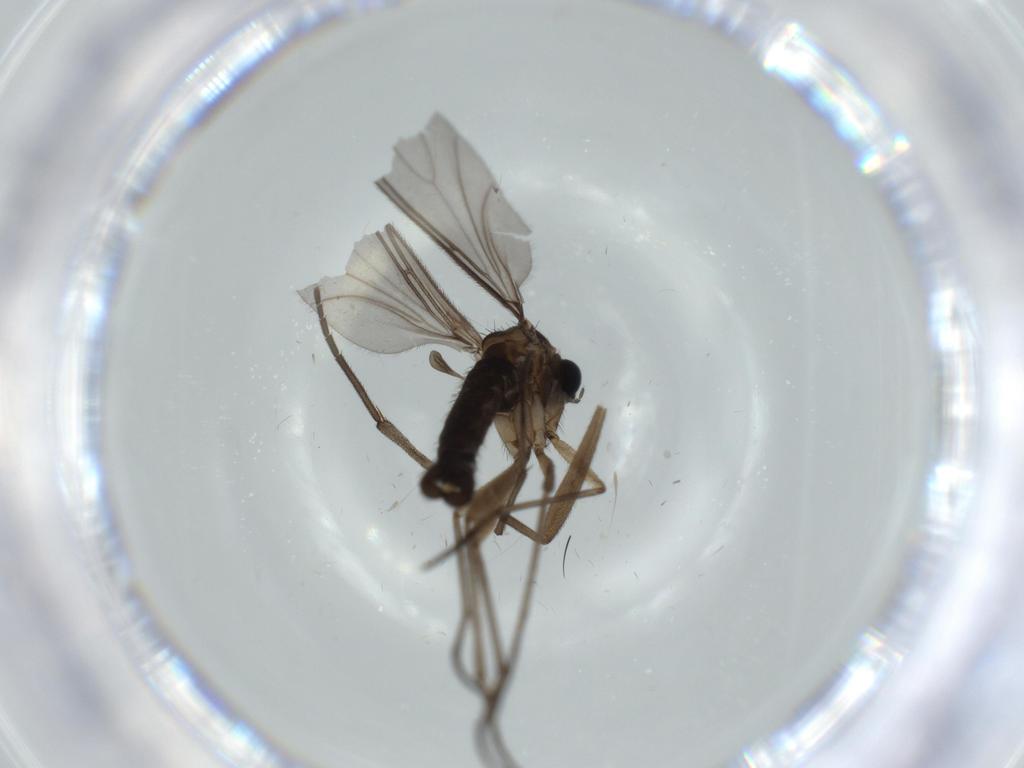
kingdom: Animalia
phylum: Arthropoda
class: Insecta
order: Diptera
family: Sciaridae
